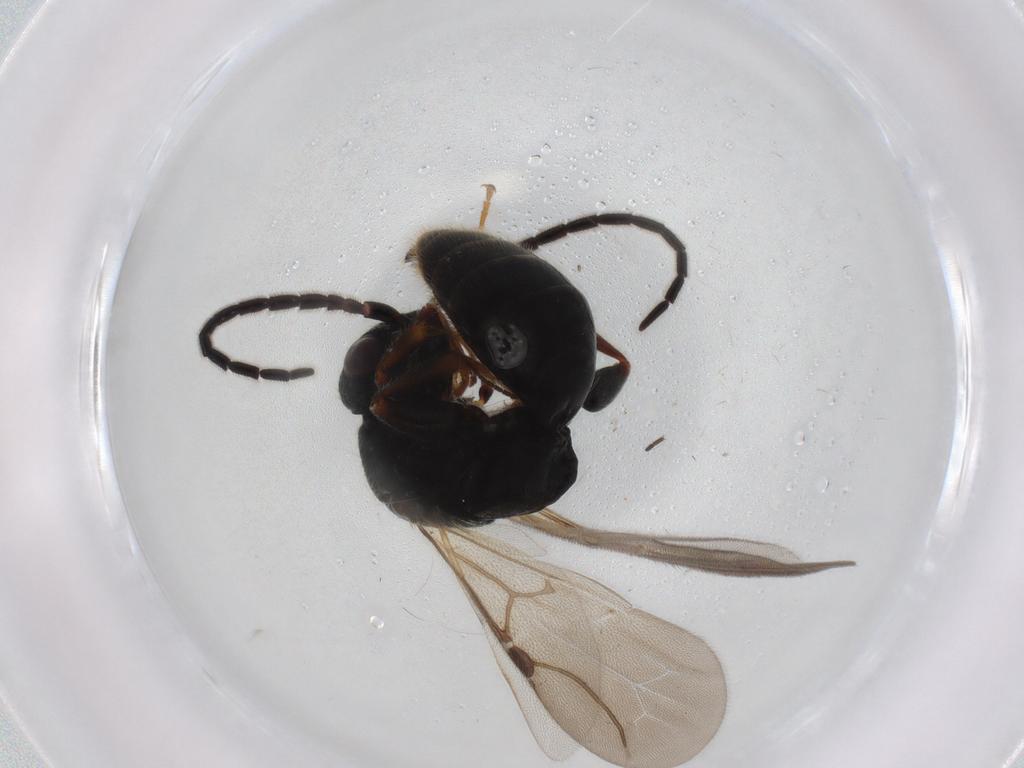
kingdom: Animalia
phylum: Arthropoda
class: Insecta
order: Hymenoptera
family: Bethylidae
